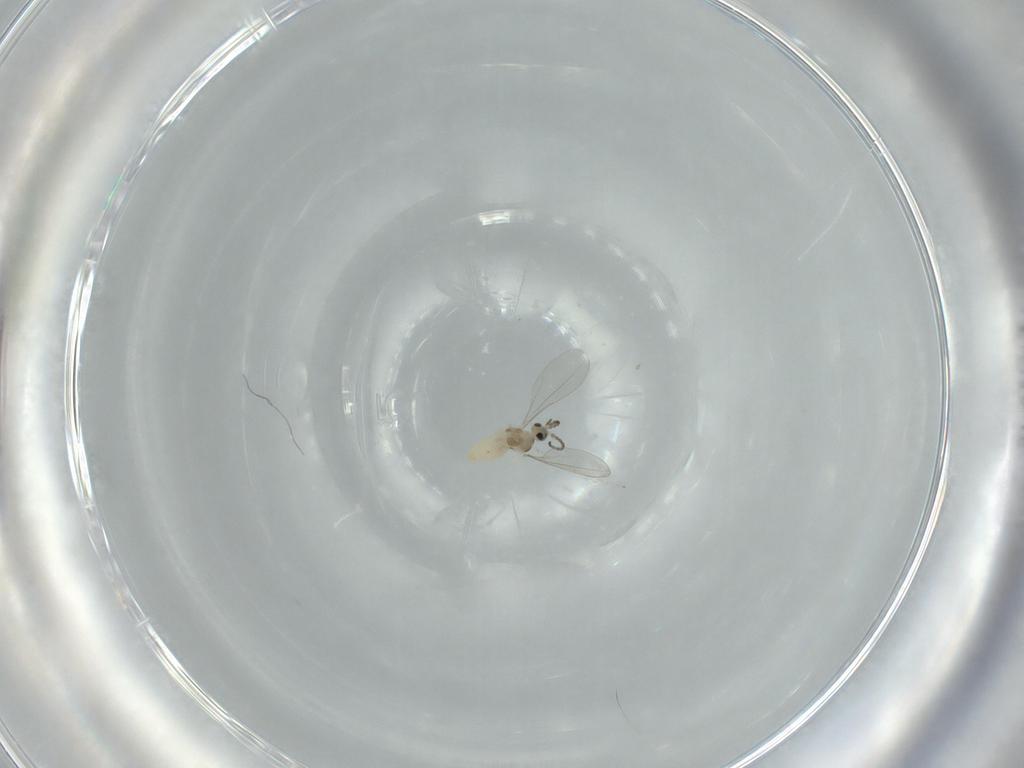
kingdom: Animalia
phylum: Arthropoda
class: Insecta
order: Diptera
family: Cecidomyiidae
